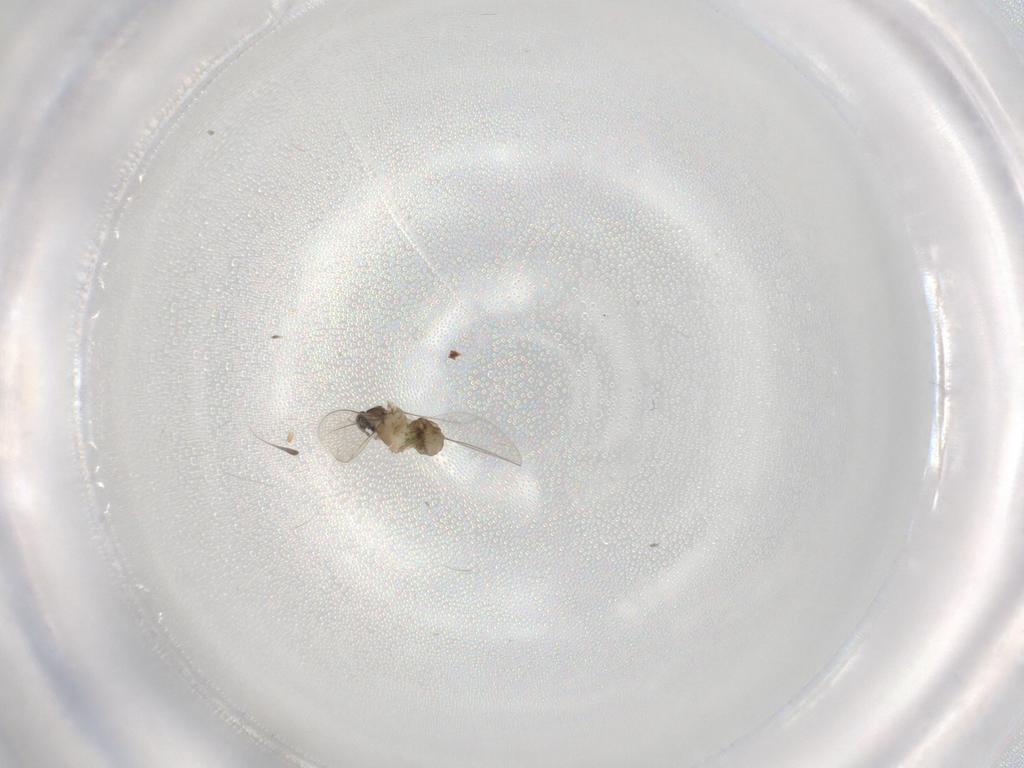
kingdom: Animalia
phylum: Arthropoda
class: Insecta
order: Diptera
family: Cecidomyiidae
